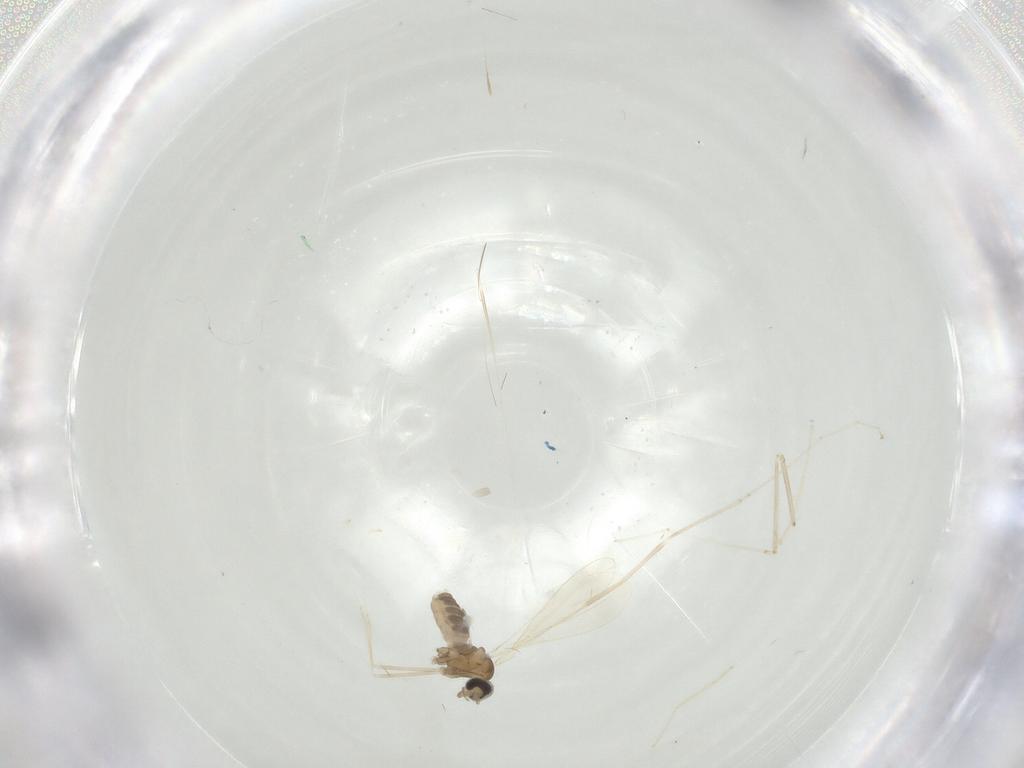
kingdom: Animalia
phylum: Arthropoda
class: Insecta
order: Diptera
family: Cecidomyiidae
